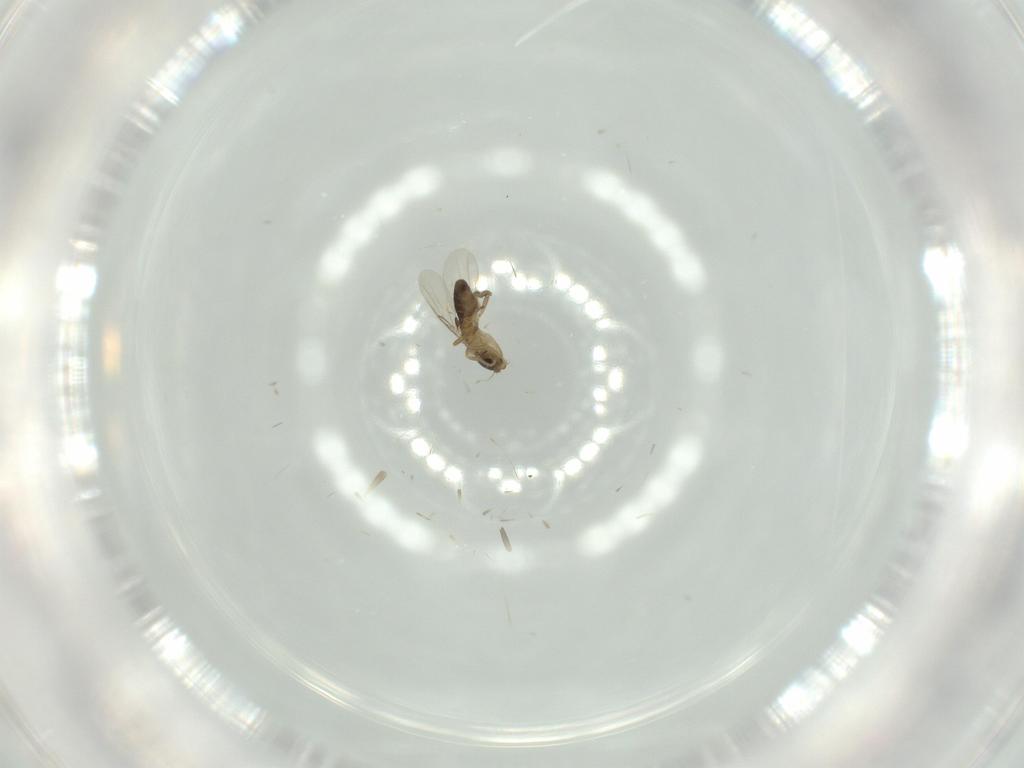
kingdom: Animalia
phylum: Arthropoda
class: Insecta
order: Diptera
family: Phoridae
